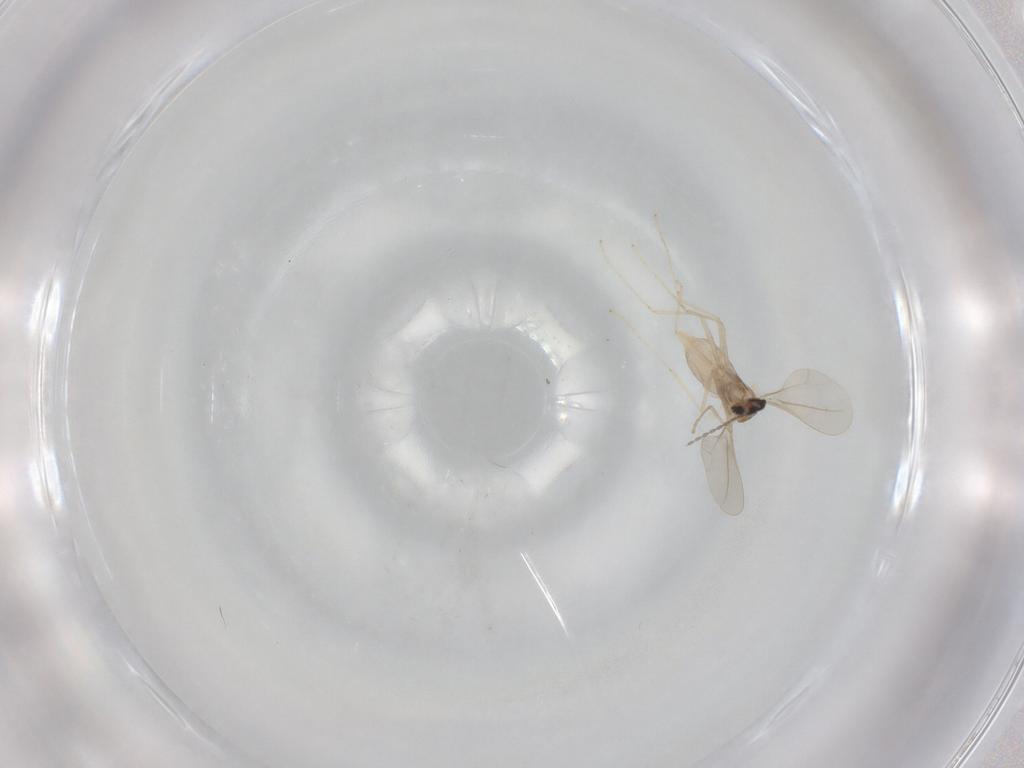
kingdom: Animalia
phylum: Arthropoda
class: Insecta
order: Diptera
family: Cecidomyiidae
